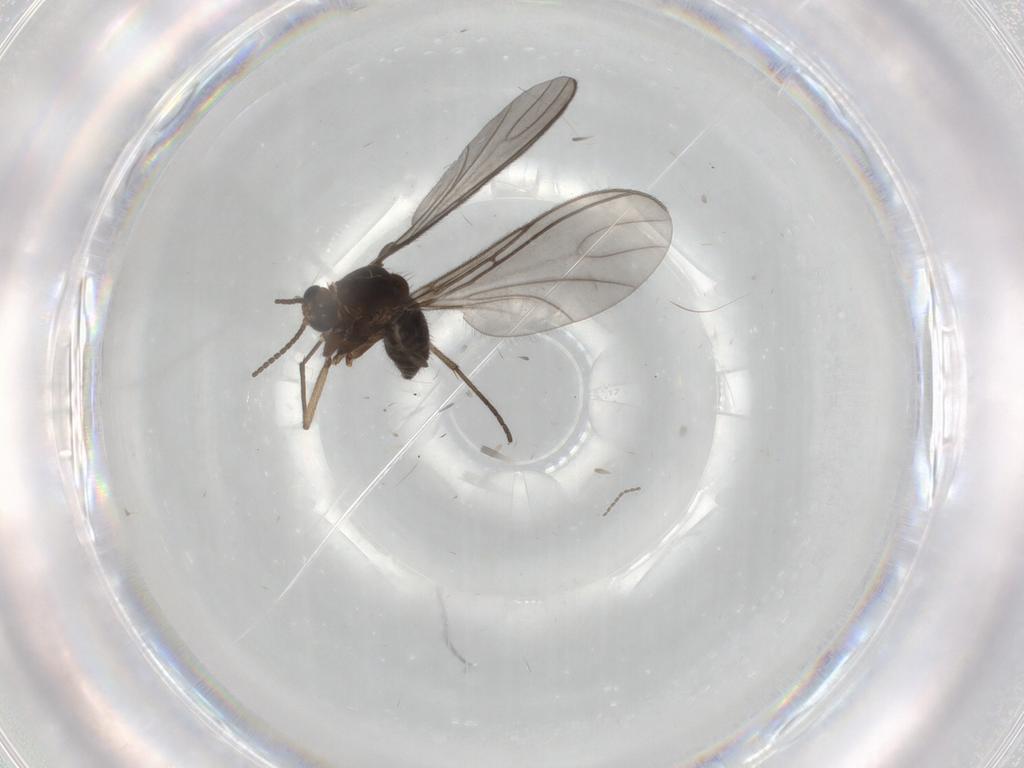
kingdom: Animalia
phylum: Arthropoda
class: Insecta
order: Diptera
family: Sciaridae
